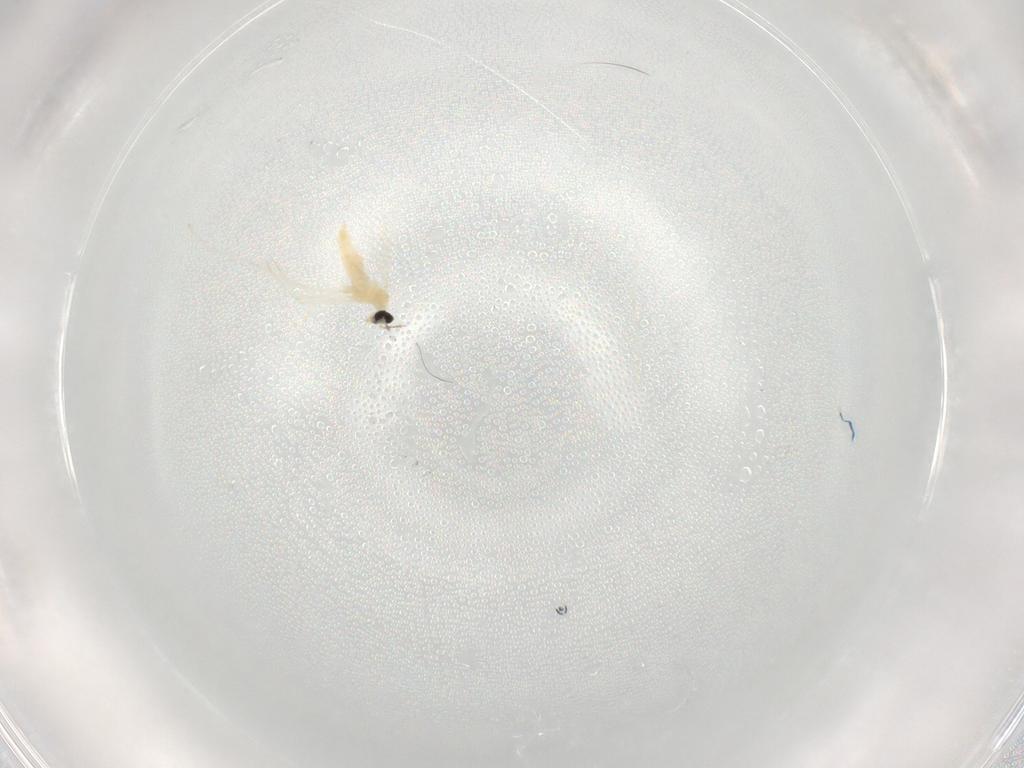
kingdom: Animalia
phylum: Arthropoda
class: Insecta
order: Diptera
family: Cecidomyiidae
